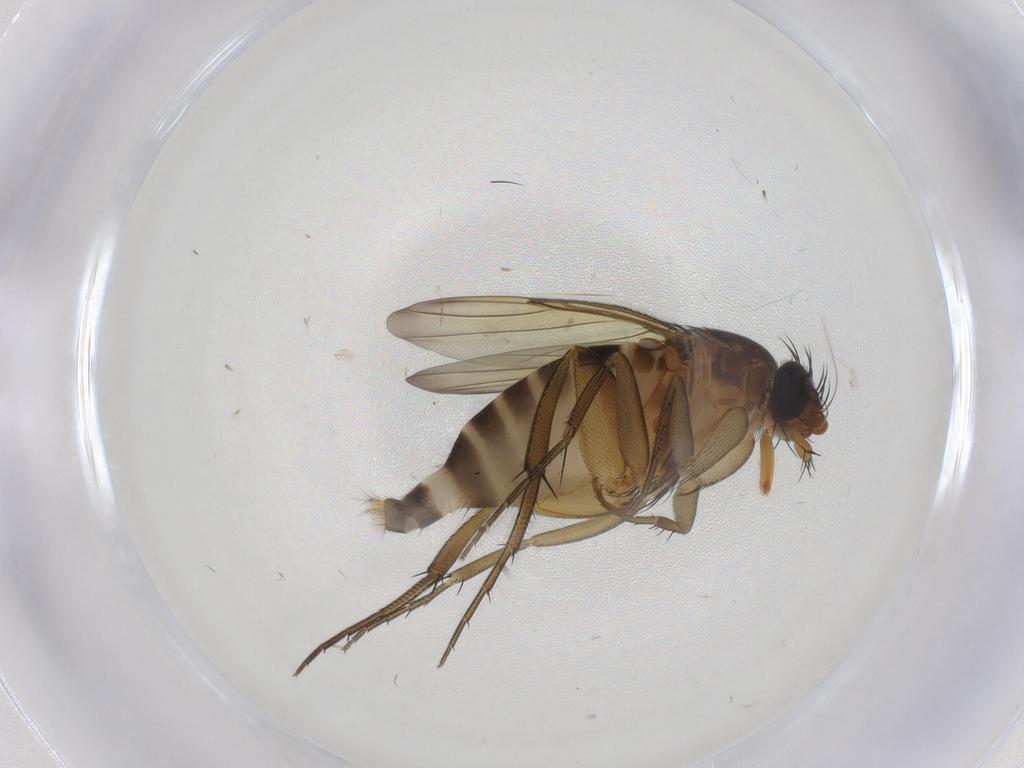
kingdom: Animalia
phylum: Arthropoda
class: Insecta
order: Diptera
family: Phoridae
